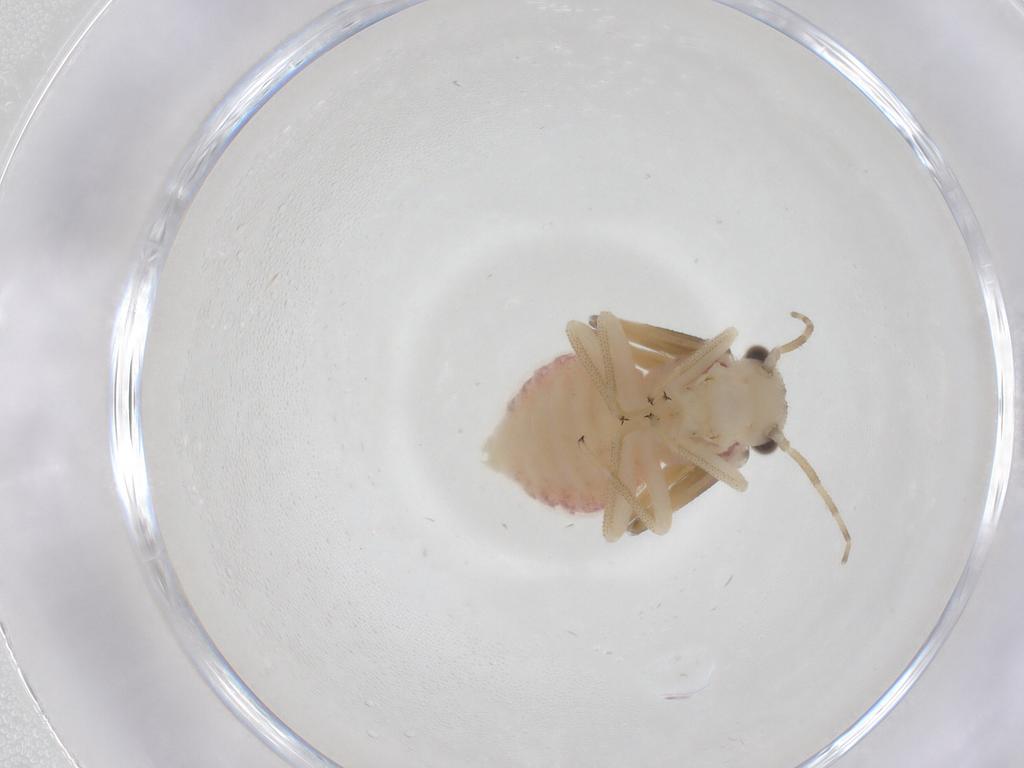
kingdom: Animalia
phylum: Arthropoda
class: Insecta
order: Psocodea
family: Amphipsocidae
